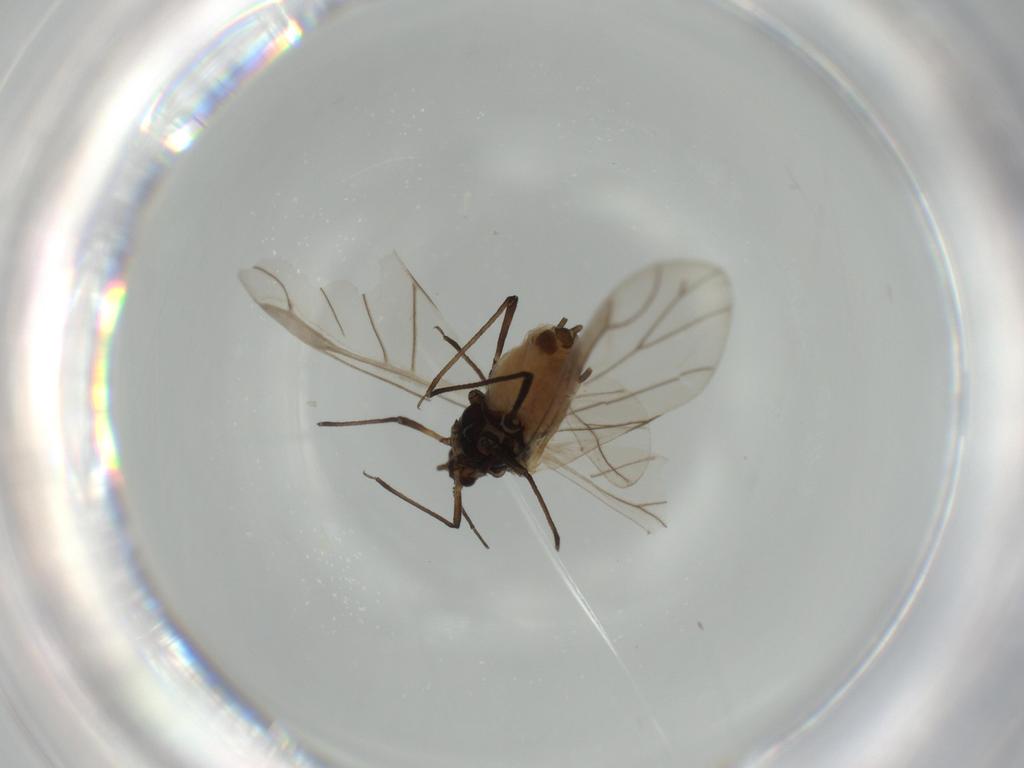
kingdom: Animalia
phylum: Arthropoda
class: Insecta
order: Hemiptera
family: Aphididae
